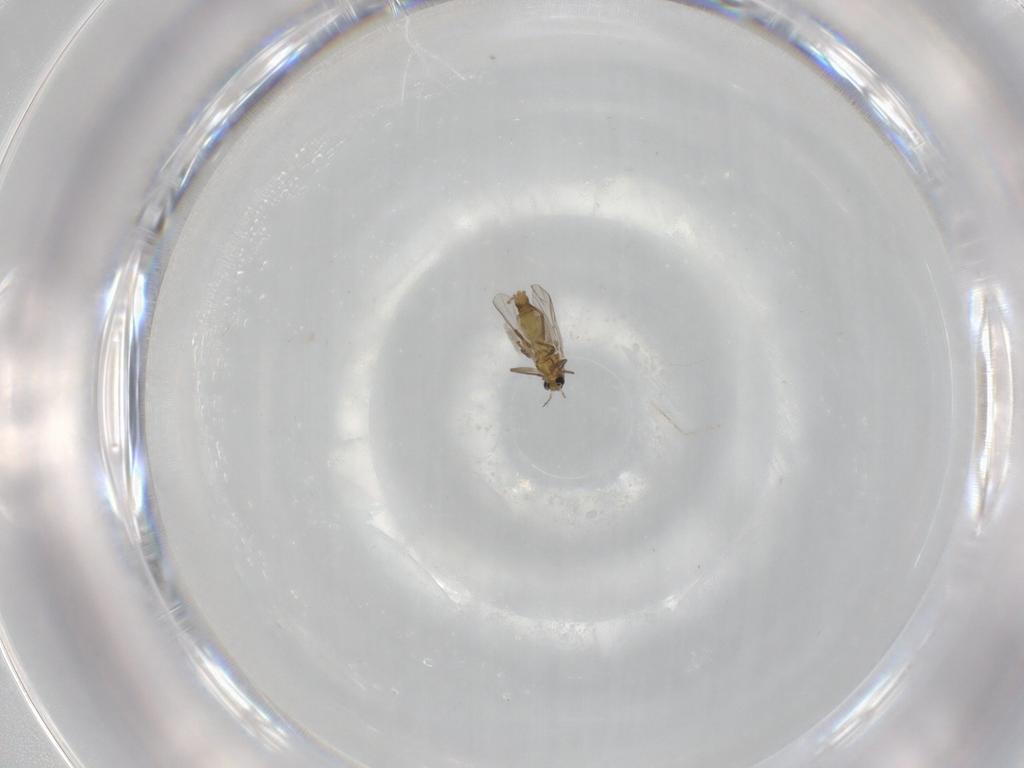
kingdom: Animalia
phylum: Arthropoda
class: Insecta
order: Diptera
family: Chironomidae
